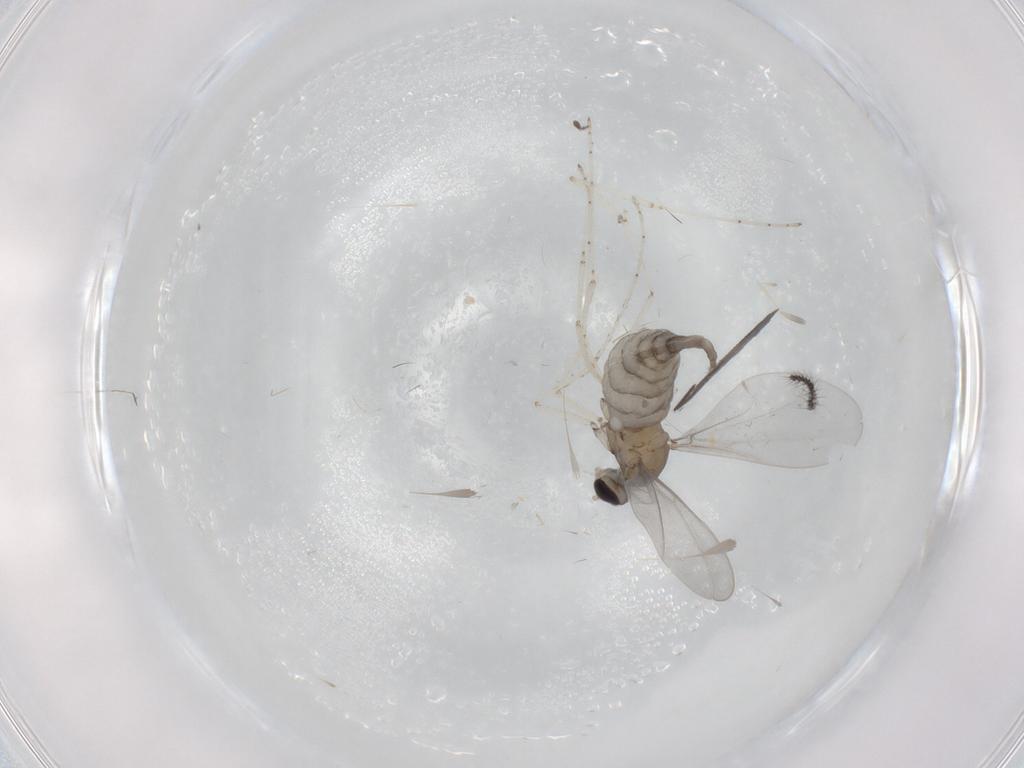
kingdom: Animalia
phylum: Arthropoda
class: Insecta
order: Diptera
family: Cecidomyiidae
